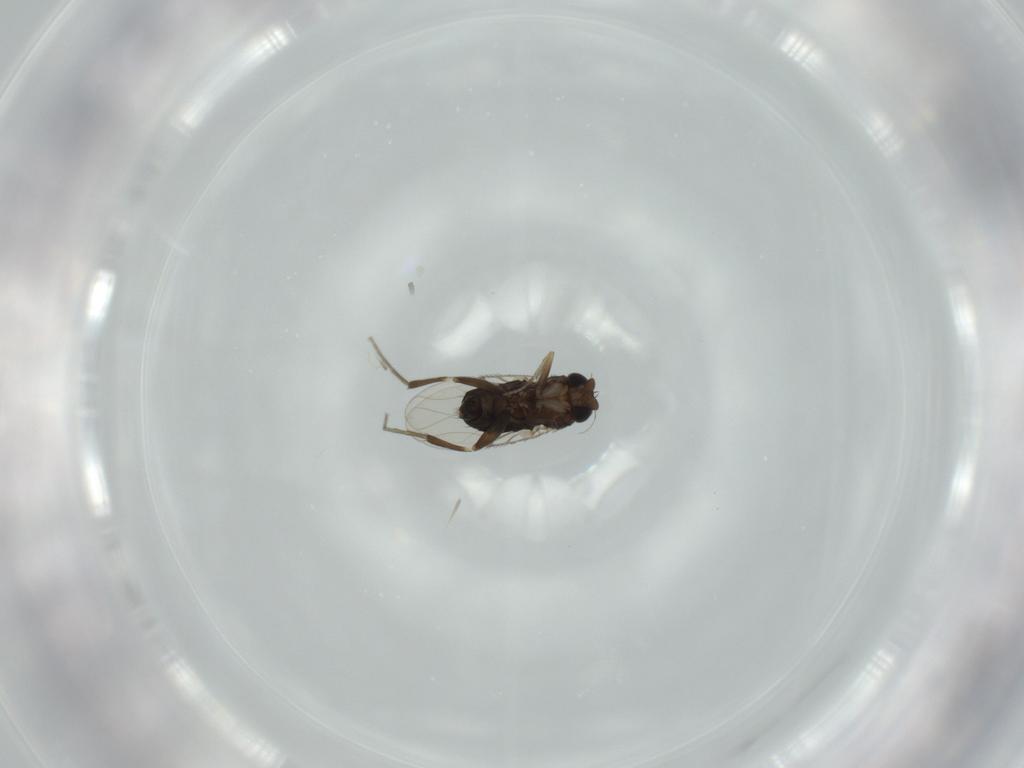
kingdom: Animalia
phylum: Arthropoda
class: Insecta
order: Diptera
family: Phoridae
